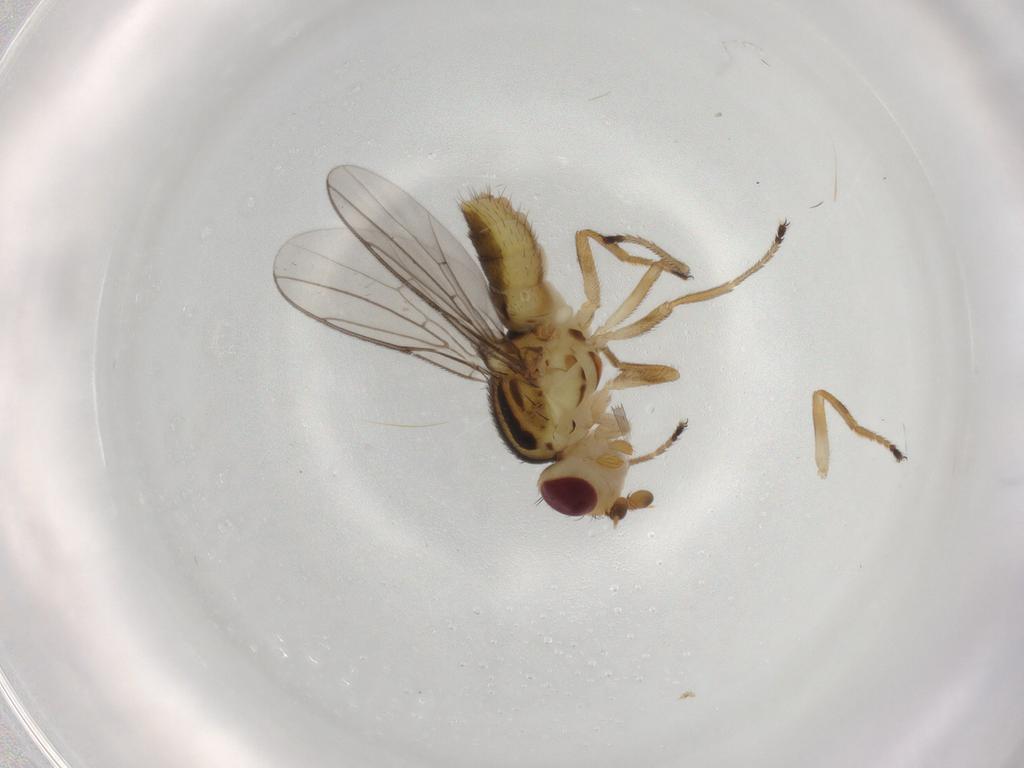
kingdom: Animalia
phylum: Arthropoda
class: Insecta
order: Diptera
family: Chloropidae
